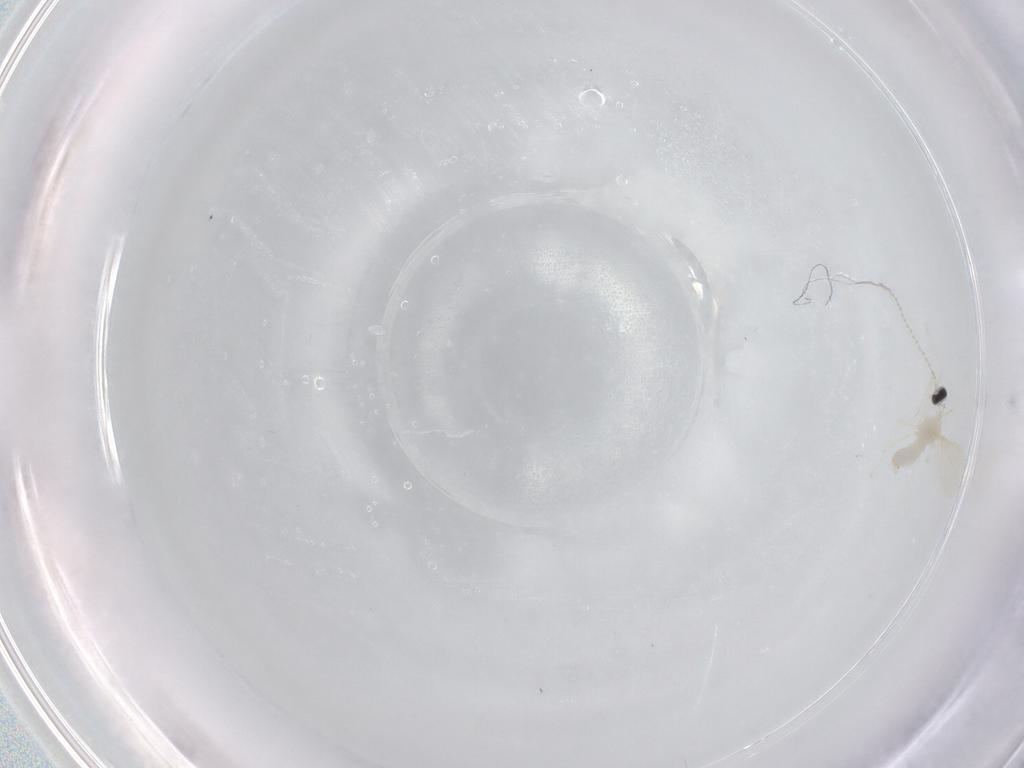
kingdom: Animalia
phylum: Arthropoda
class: Insecta
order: Diptera
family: Cecidomyiidae
